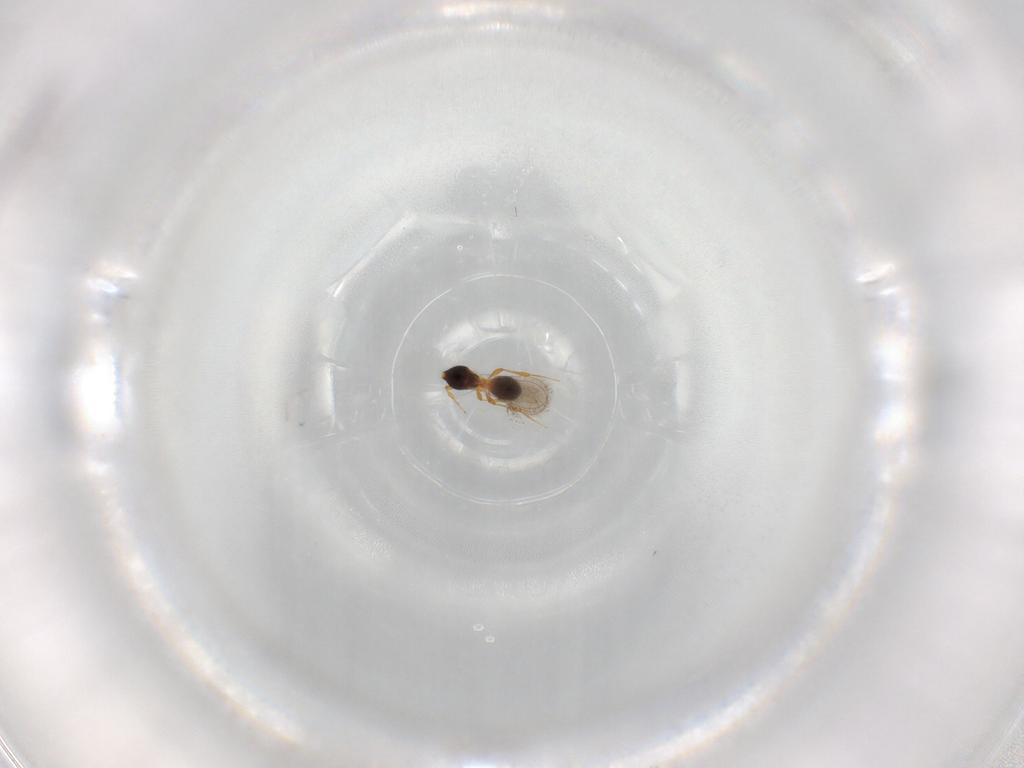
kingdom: Animalia
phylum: Arthropoda
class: Insecta
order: Hymenoptera
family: Platygastridae
